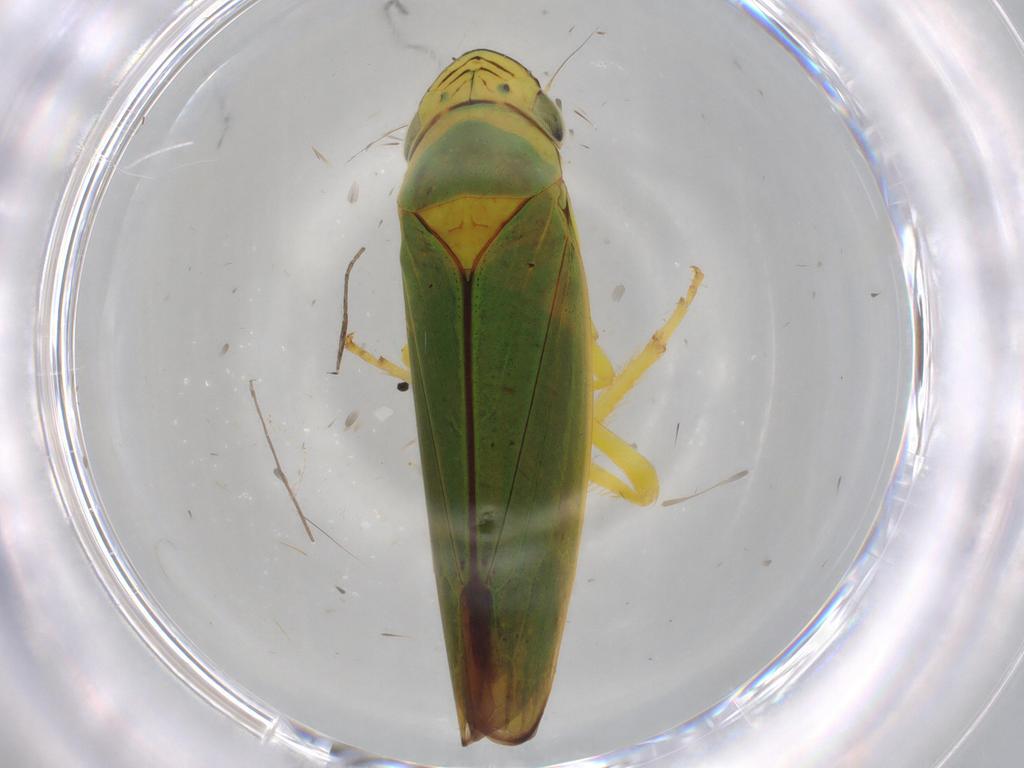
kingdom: Animalia
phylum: Arthropoda
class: Insecta
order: Hemiptera
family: Cicadellidae
